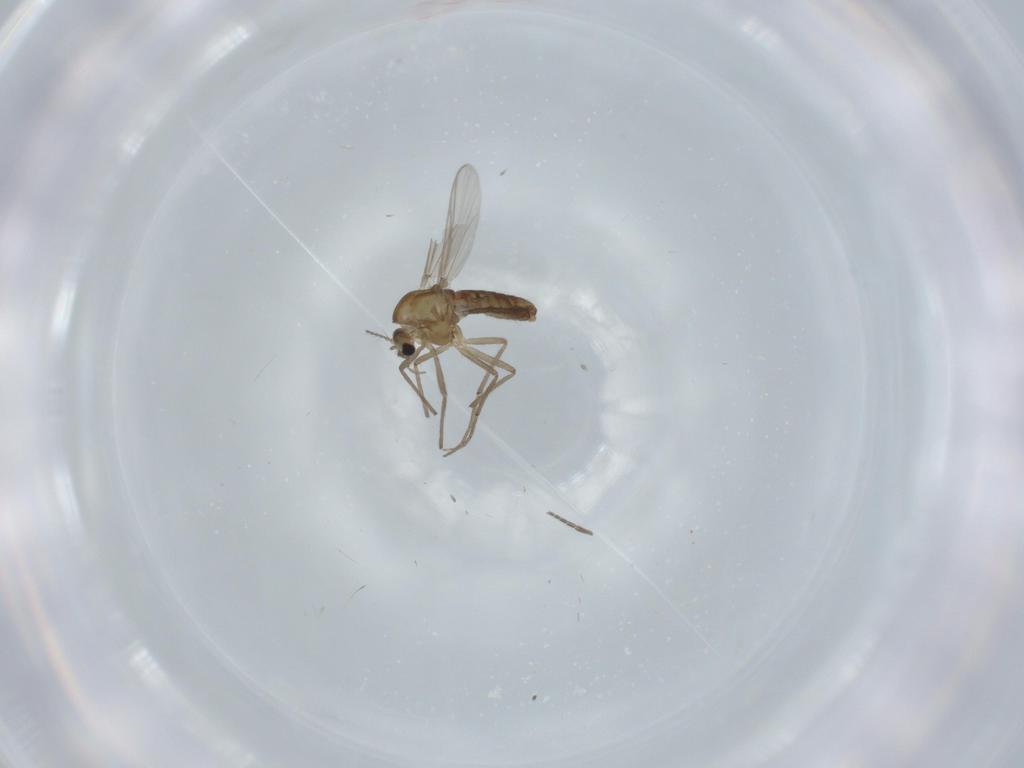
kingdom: Animalia
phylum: Arthropoda
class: Insecta
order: Diptera
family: Chironomidae
